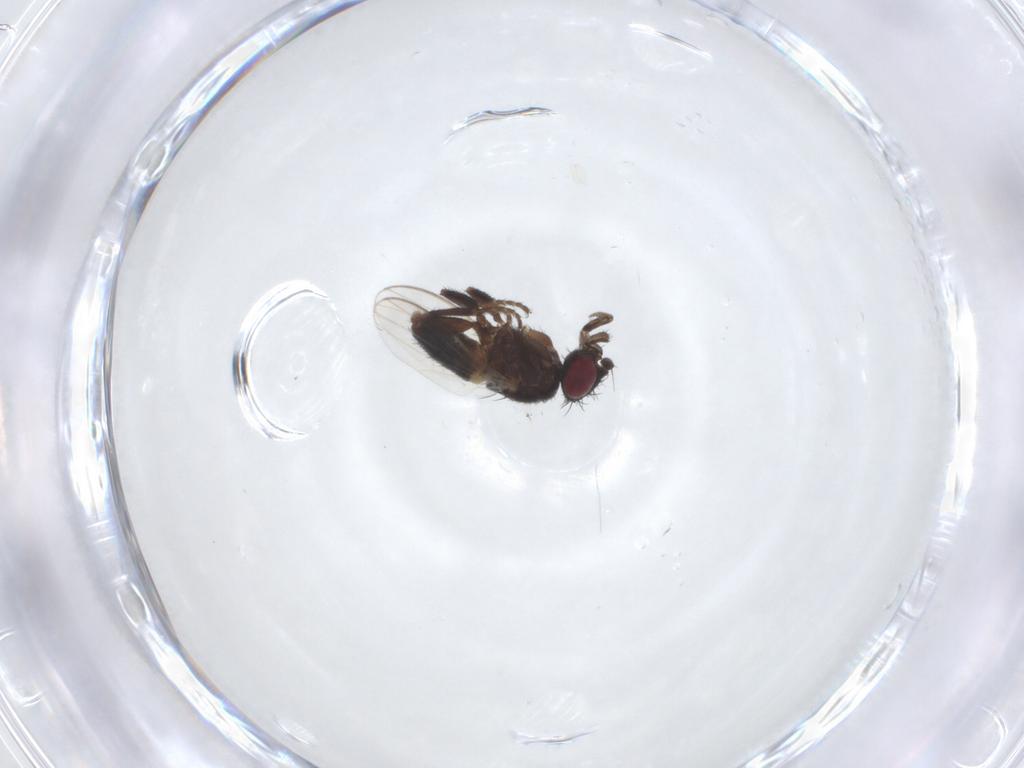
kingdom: Animalia
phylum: Arthropoda
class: Insecta
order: Diptera
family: Milichiidae
